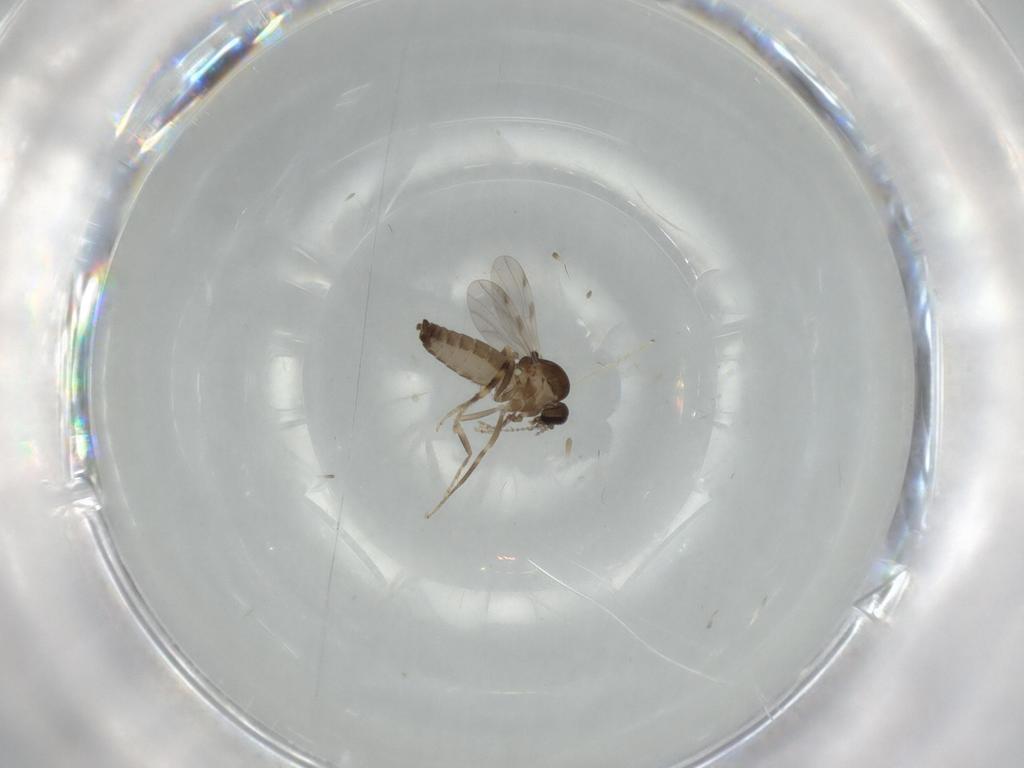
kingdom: Animalia
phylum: Arthropoda
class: Insecta
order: Diptera
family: Ceratopogonidae
